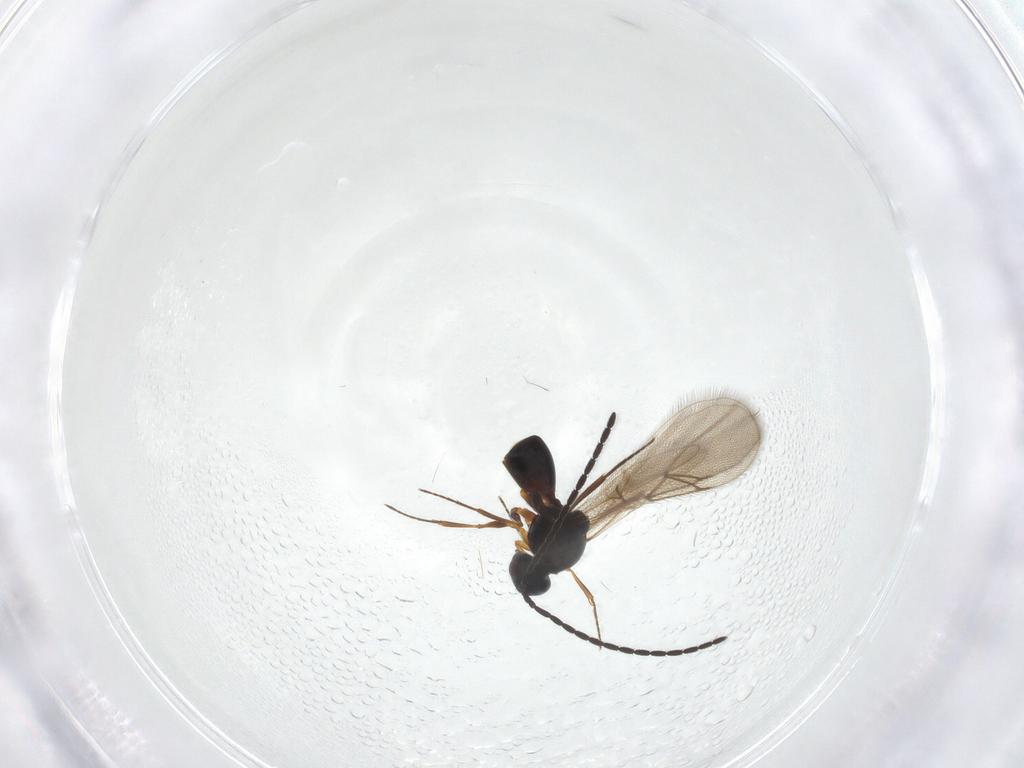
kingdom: Animalia
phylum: Arthropoda
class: Insecta
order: Hymenoptera
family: Figitidae
